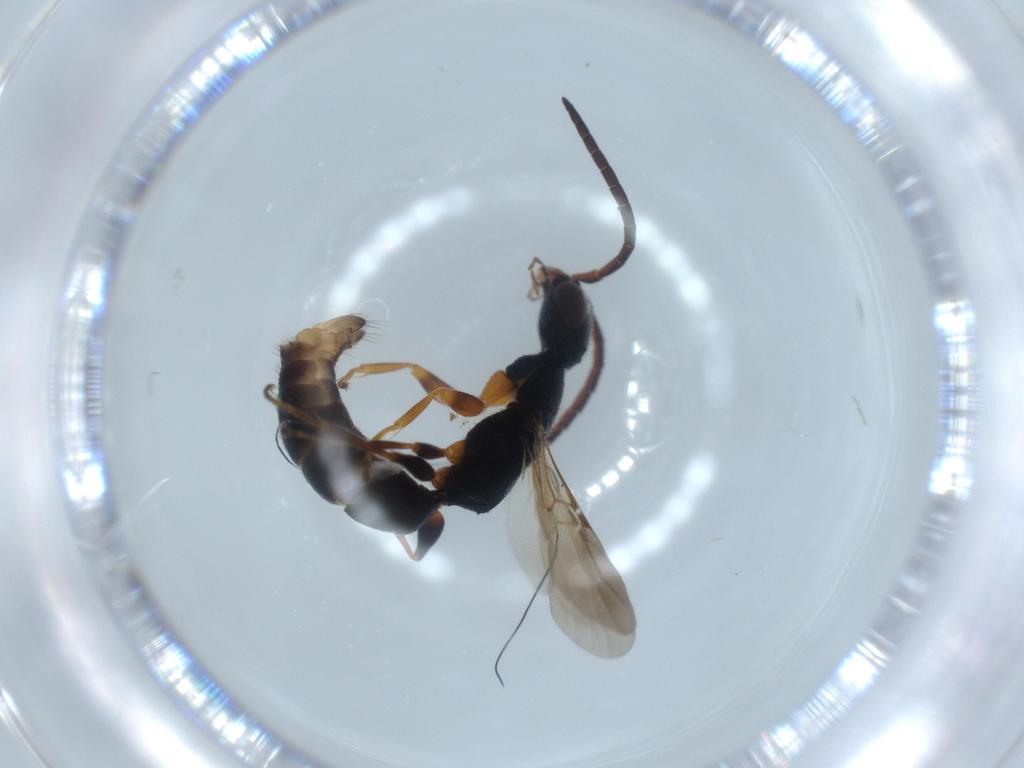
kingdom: Animalia
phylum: Arthropoda
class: Insecta
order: Hymenoptera
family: Bethylidae
